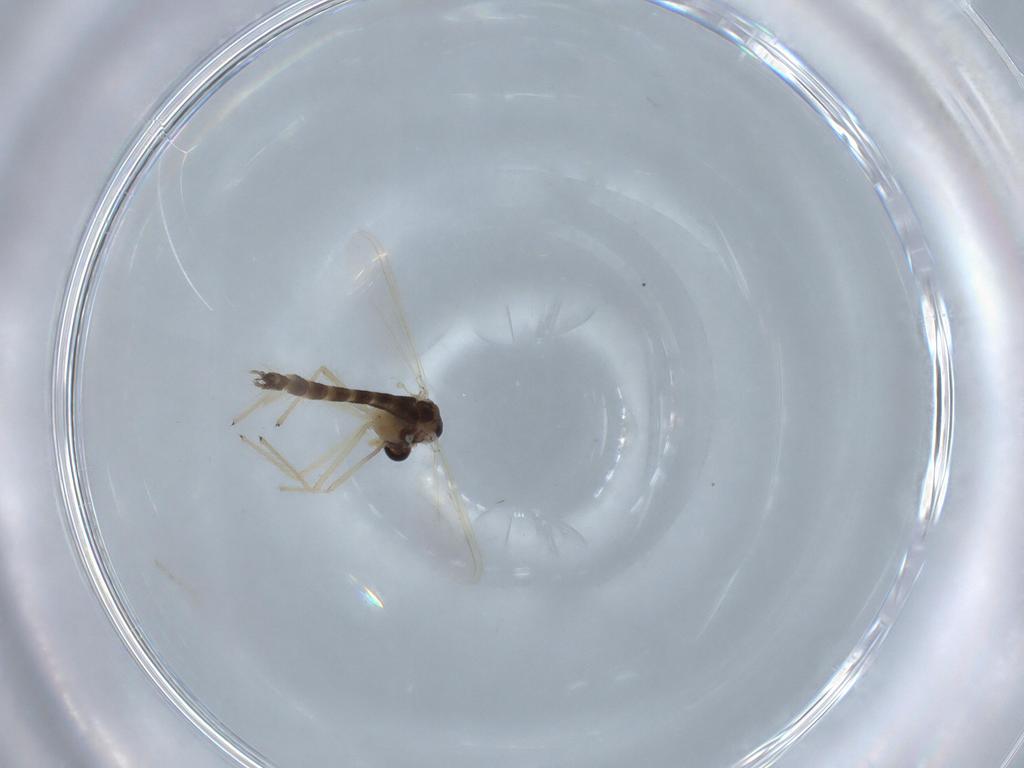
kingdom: Animalia
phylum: Arthropoda
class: Insecta
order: Diptera
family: Chironomidae
